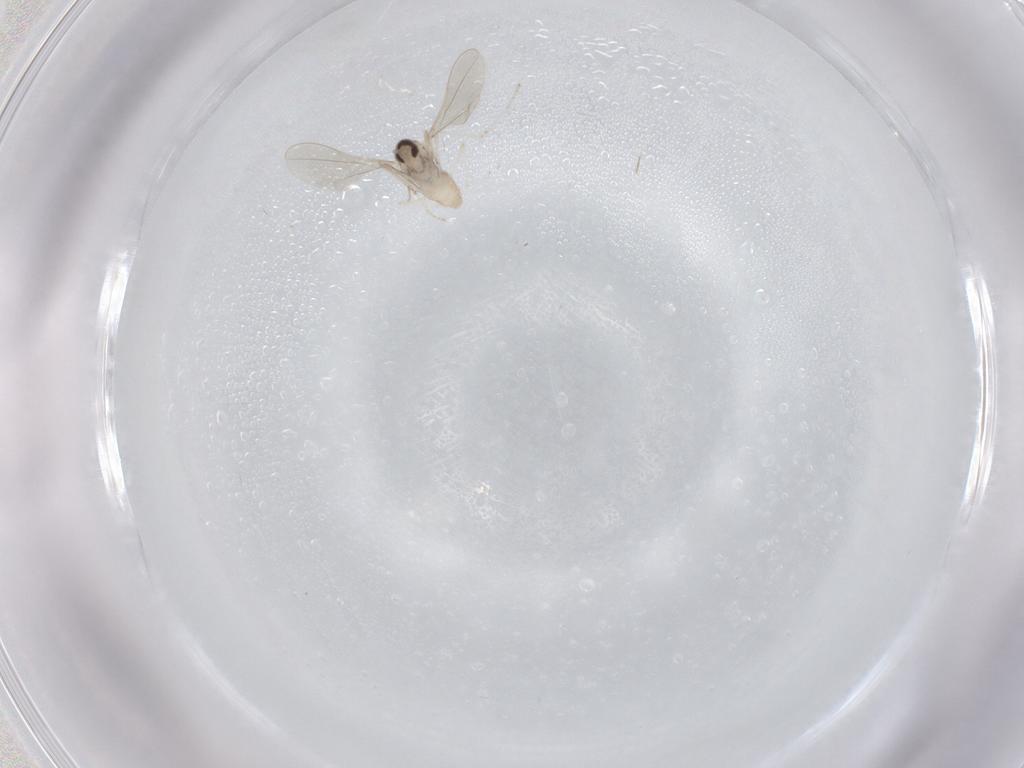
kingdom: Animalia
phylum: Arthropoda
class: Insecta
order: Diptera
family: Cecidomyiidae
